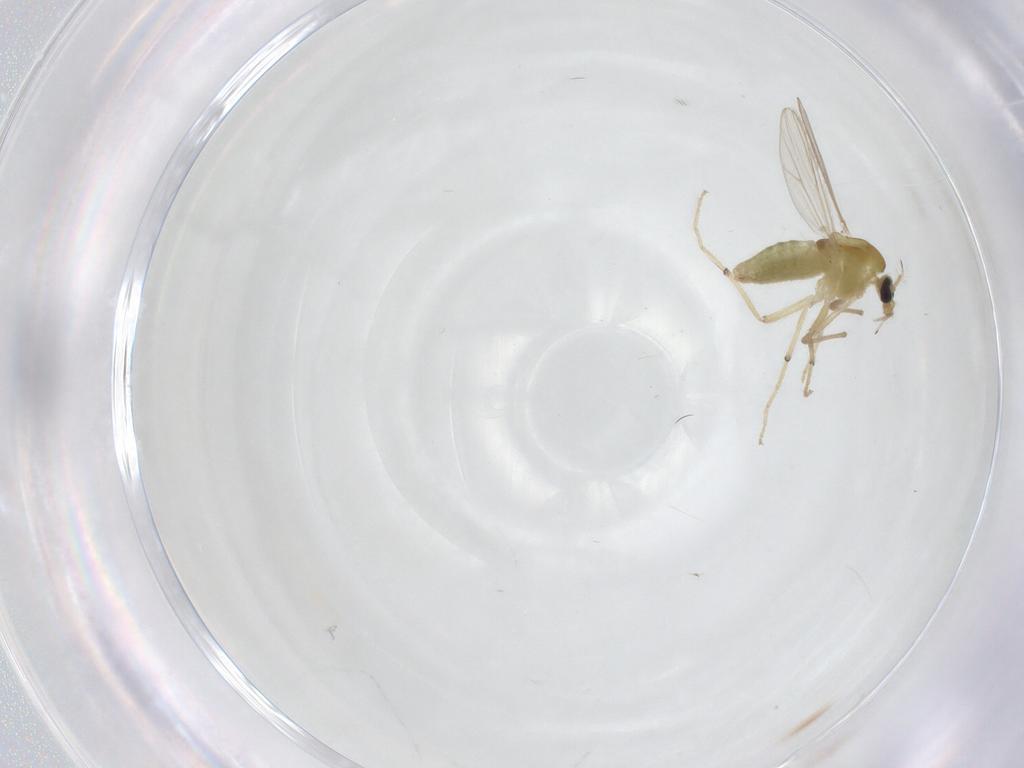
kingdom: Animalia
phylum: Arthropoda
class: Insecta
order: Diptera
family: Chironomidae
